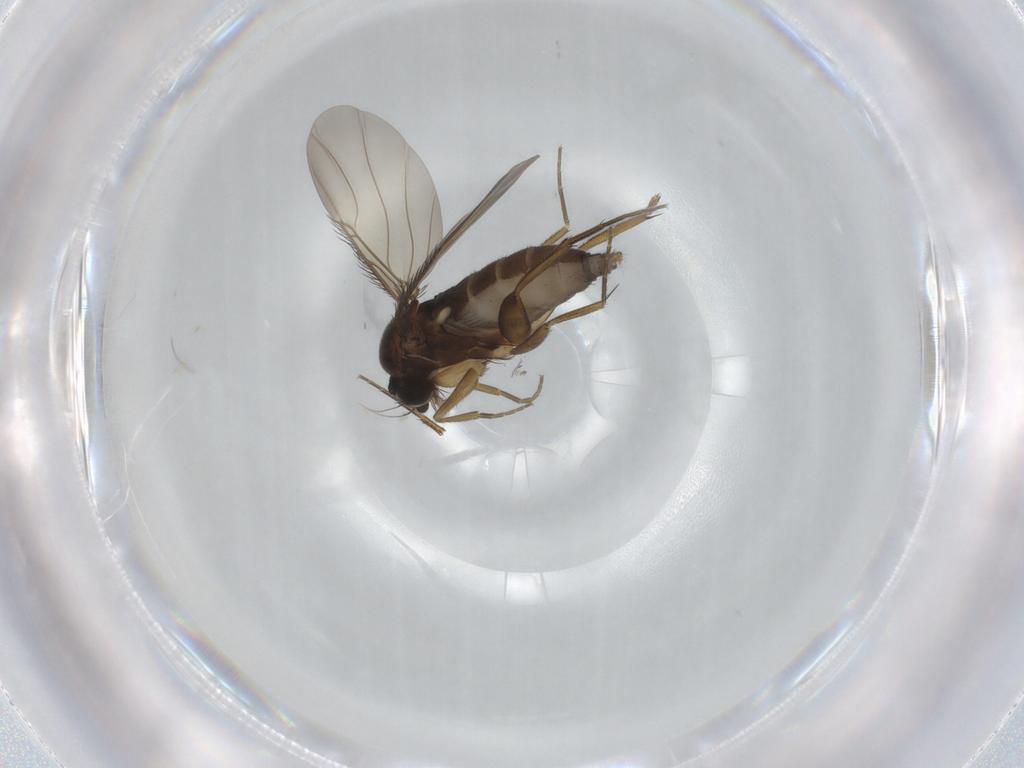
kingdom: Animalia
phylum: Arthropoda
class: Insecta
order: Diptera
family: Phoridae
